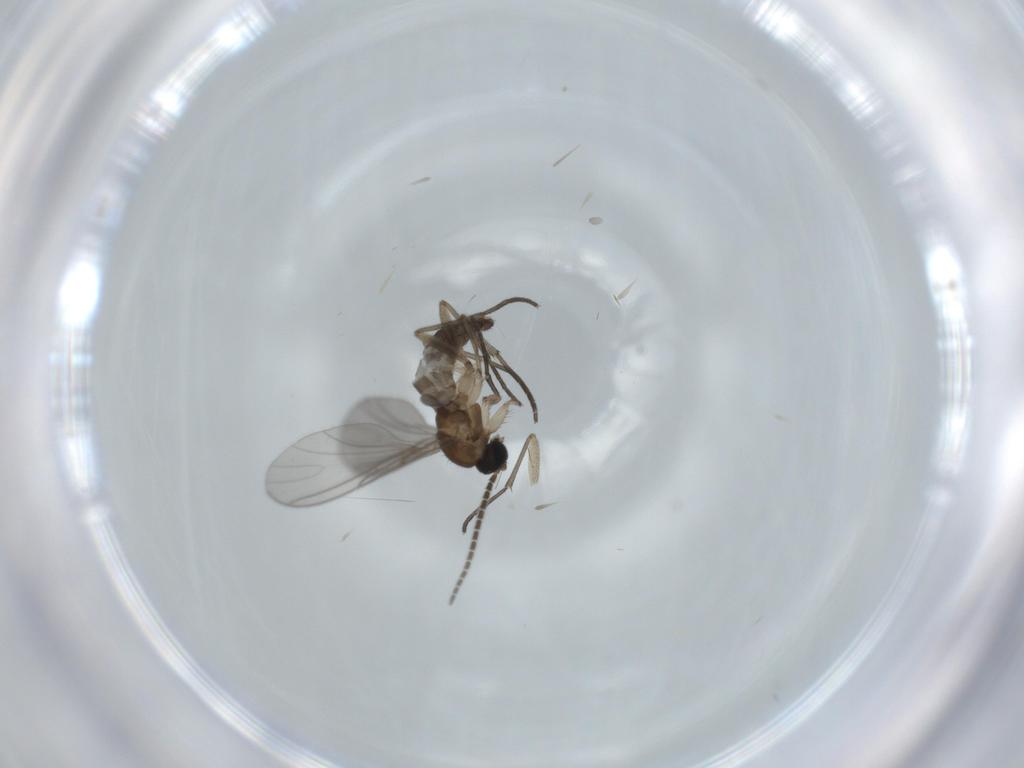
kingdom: Animalia
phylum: Arthropoda
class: Insecta
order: Diptera
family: Sciaridae
